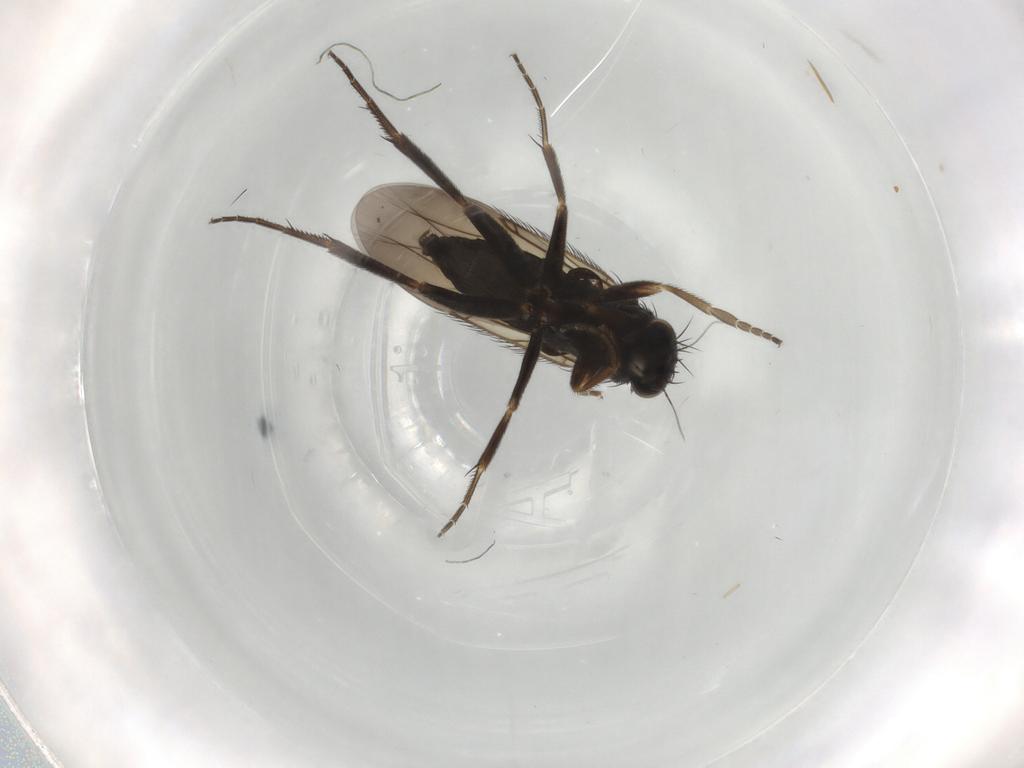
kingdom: Animalia
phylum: Arthropoda
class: Insecta
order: Diptera
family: Phoridae
